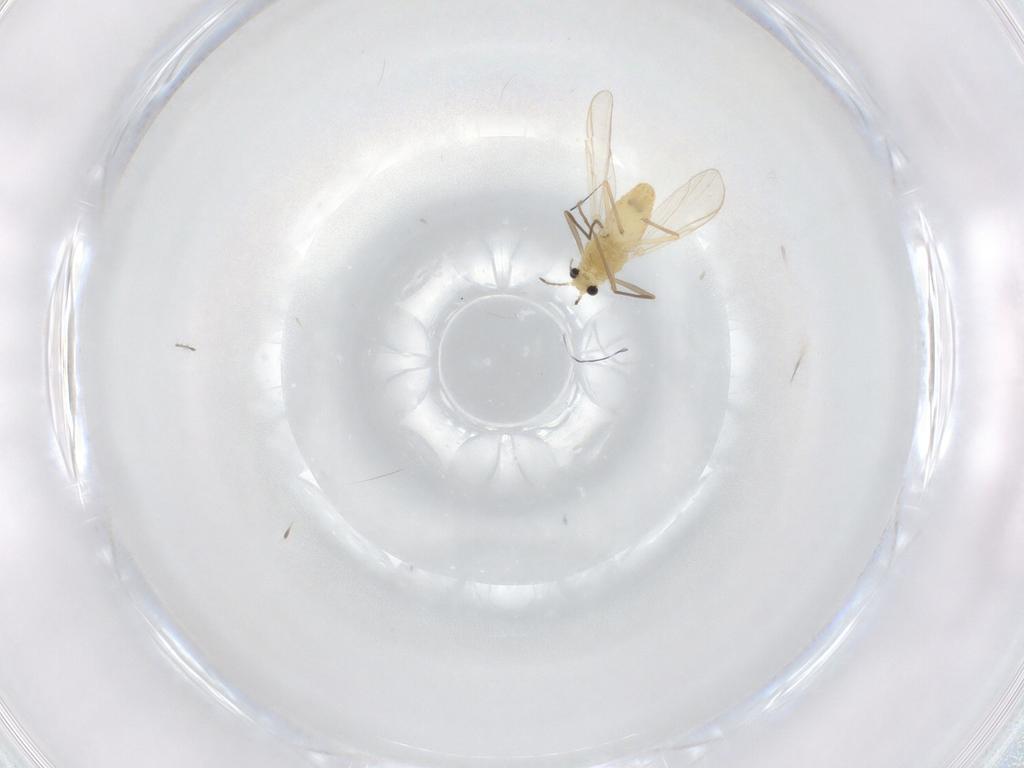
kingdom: Animalia
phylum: Arthropoda
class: Insecta
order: Diptera
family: Chironomidae
